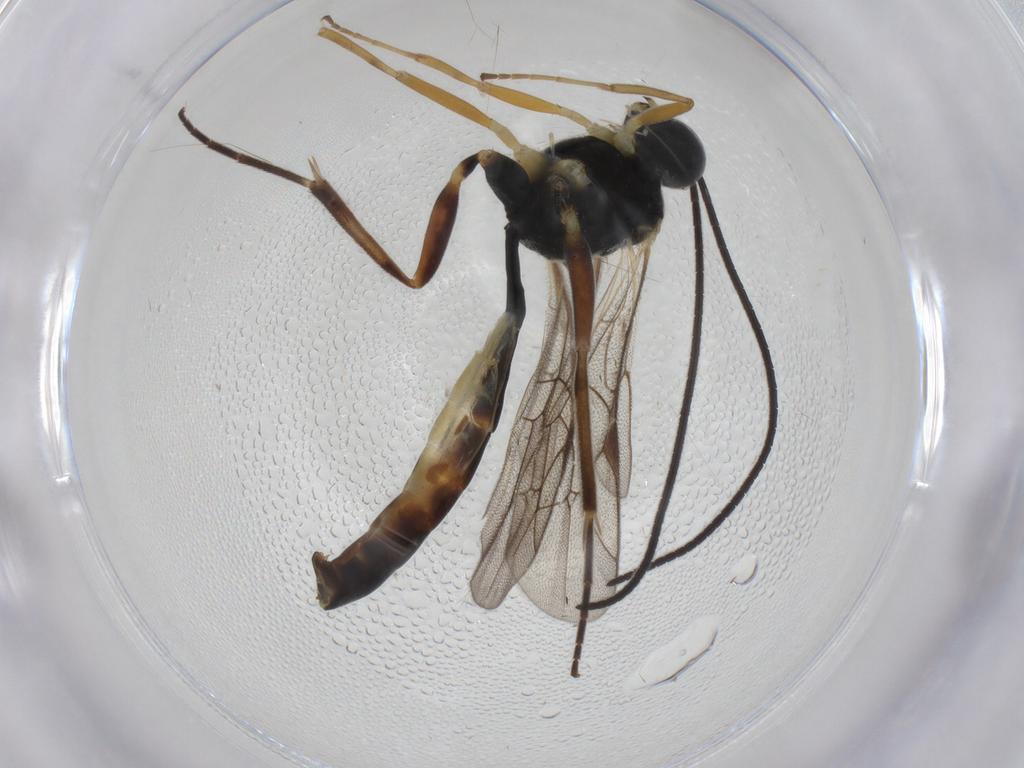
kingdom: Animalia
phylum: Arthropoda
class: Insecta
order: Hymenoptera
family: Ichneumonidae
